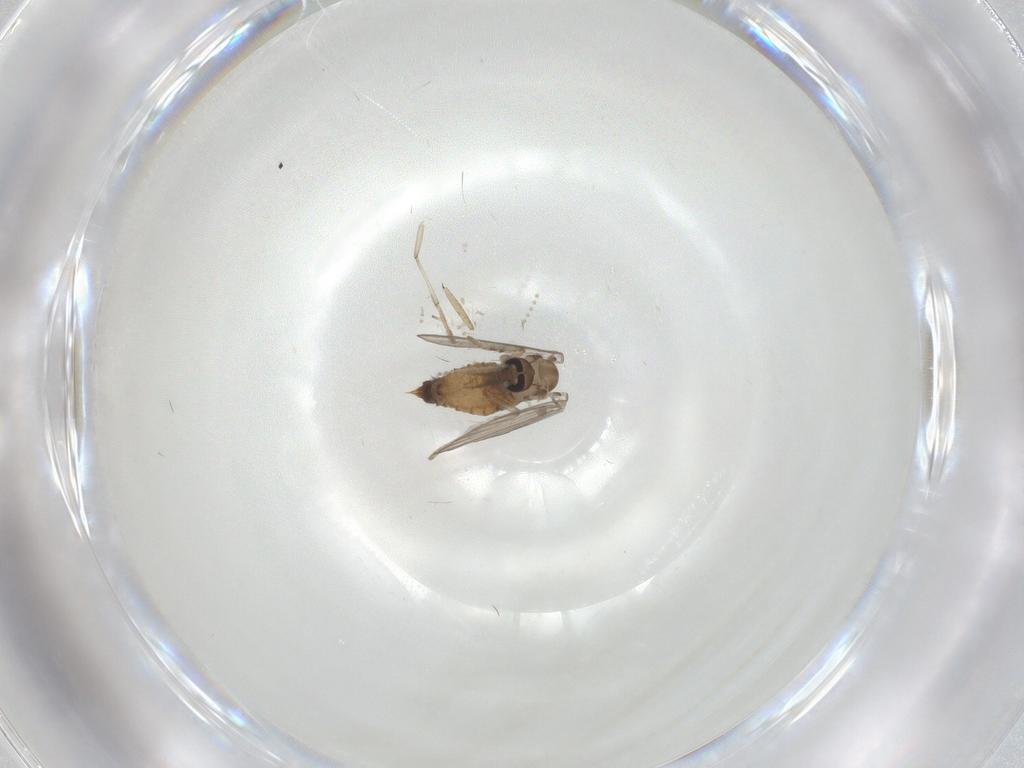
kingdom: Animalia
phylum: Arthropoda
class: Insecta
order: Diptera
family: Psychodidae
